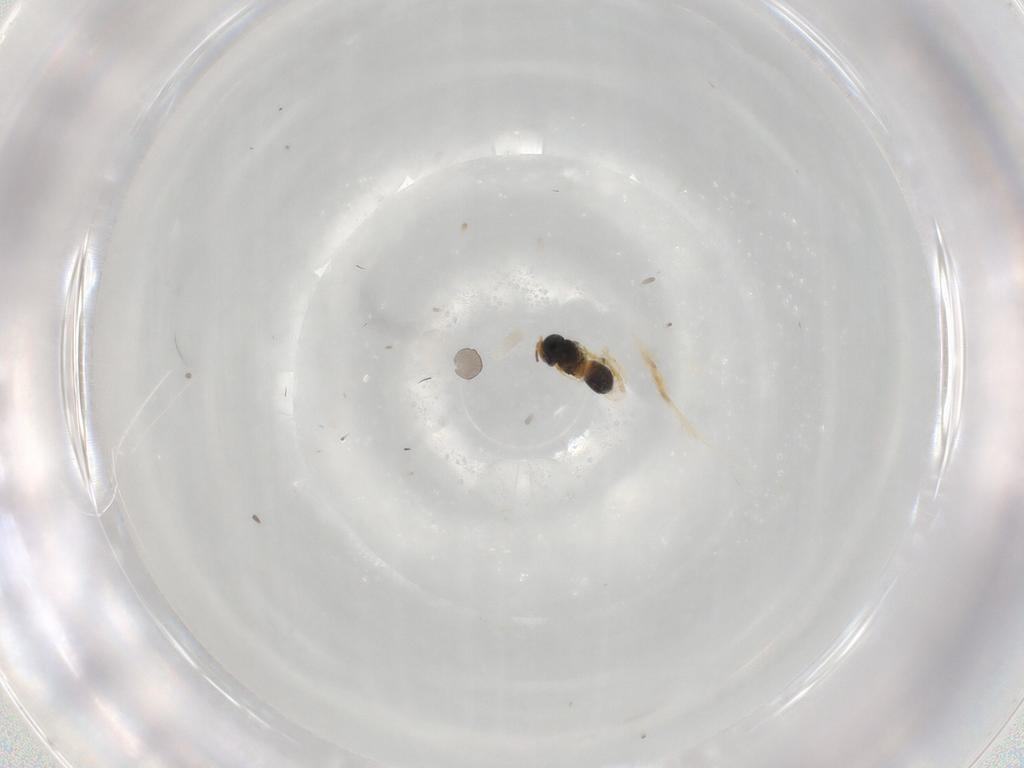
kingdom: Animalia
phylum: Arthropoda
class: Insecta
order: Hymenoptera
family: Scelionidae
